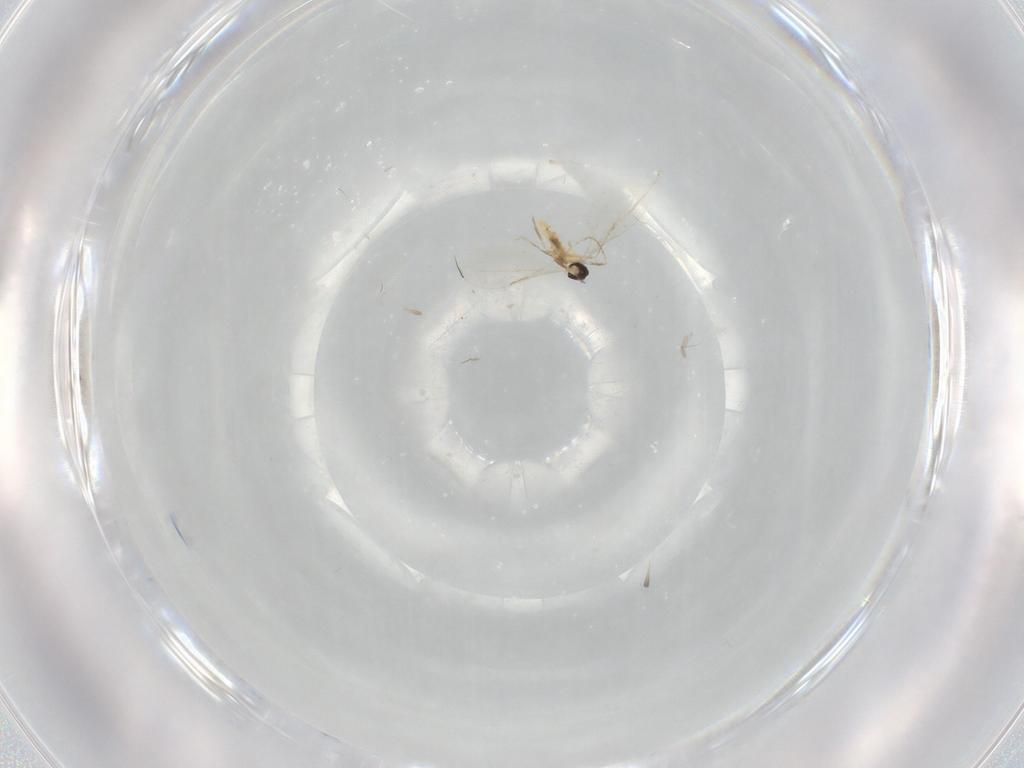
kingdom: Animalia
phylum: Arthropoda
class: Insecta
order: Diptera
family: Cecidomyiidae
